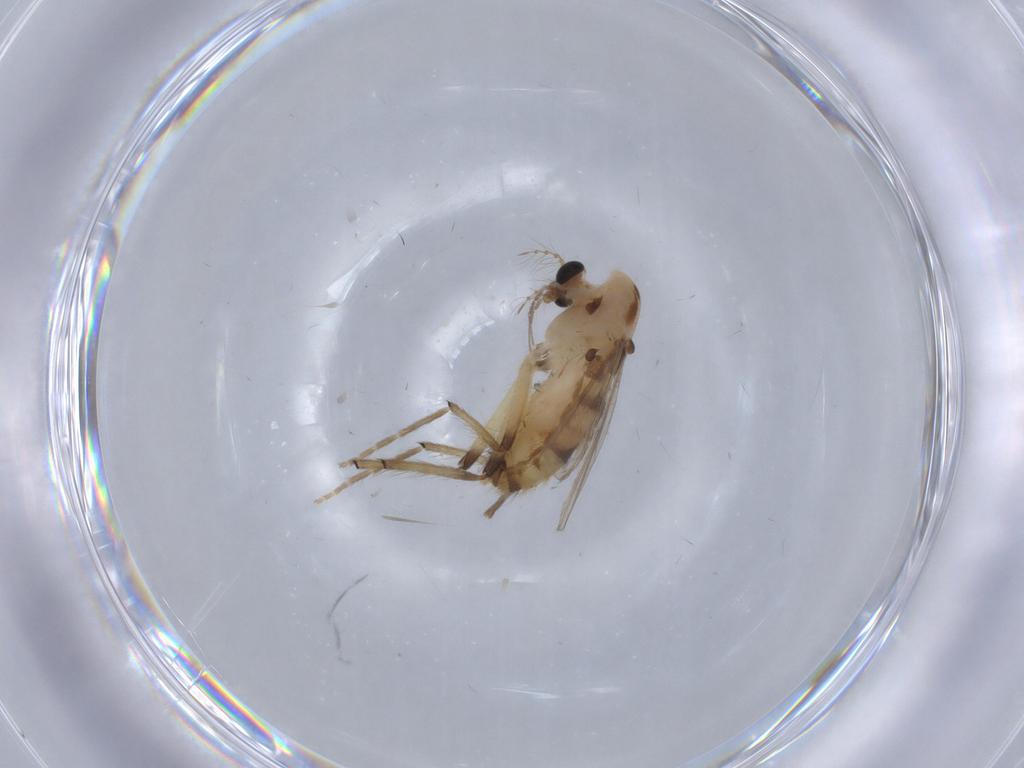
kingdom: Animalia
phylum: Arthropoda
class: Insecta
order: Diptera
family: Chironomidae
